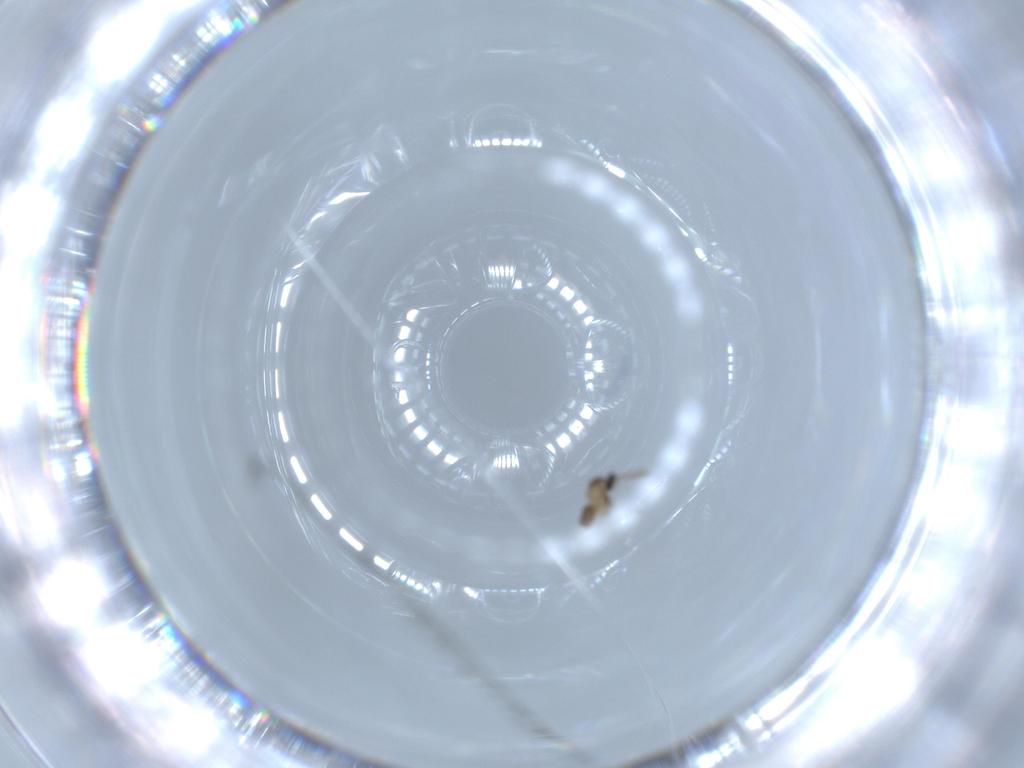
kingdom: Animalia
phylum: Arthropoda
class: Insecta
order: Diptera
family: Cecidomyiidae
